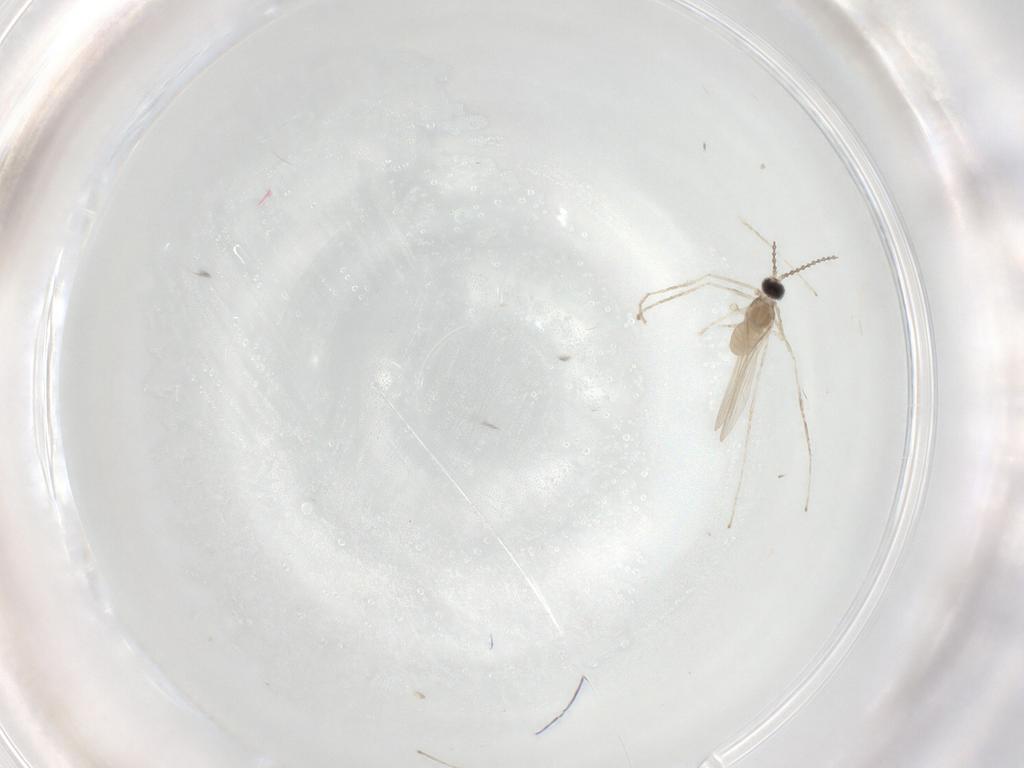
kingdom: Animalia
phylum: Arthropoda
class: Insecta
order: Diptera
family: Cecidomyiidae
